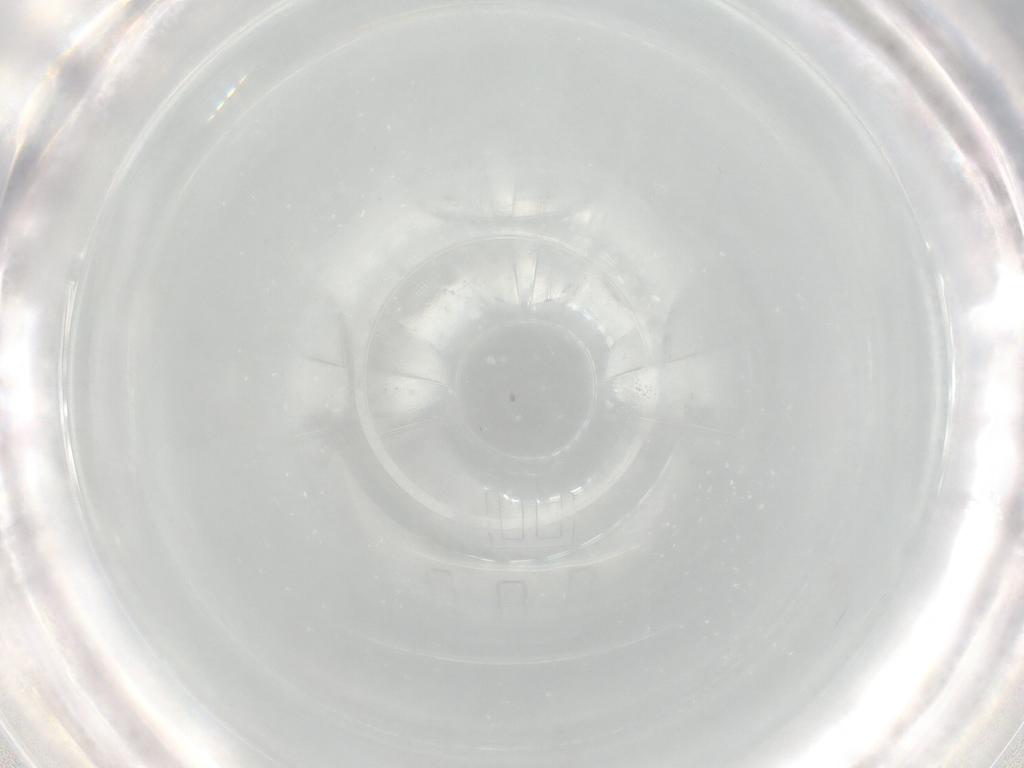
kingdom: Animalia
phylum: Arthropoda
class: Insecta
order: Diptera
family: Cecidomyiidae
